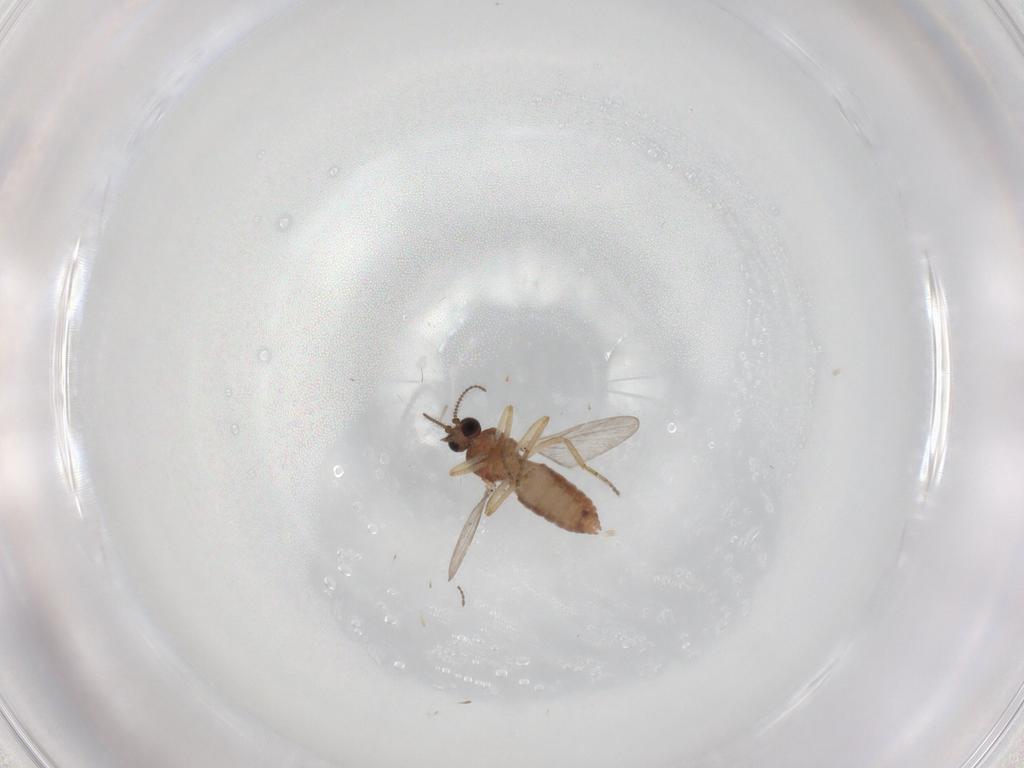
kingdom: Animalia
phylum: Arthropoda
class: Insecta
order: Diptera
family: Ceratopogonidae
